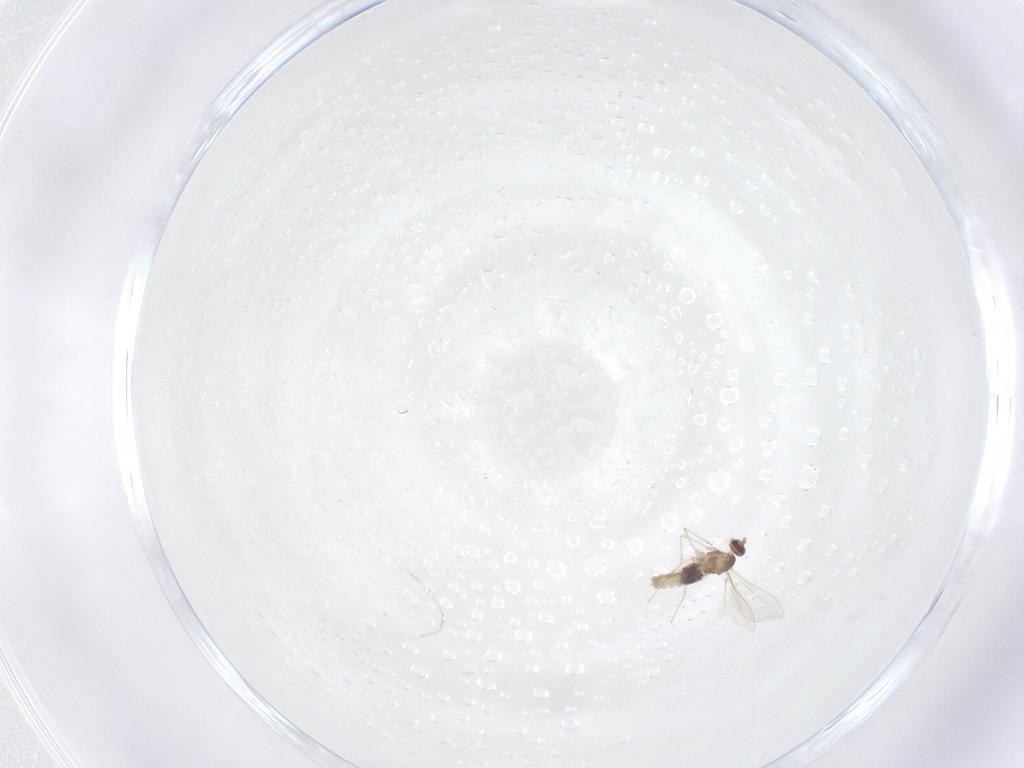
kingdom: Animalia
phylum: Arthropoda
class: Insecta
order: Diptera
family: Sphaeroceridae
